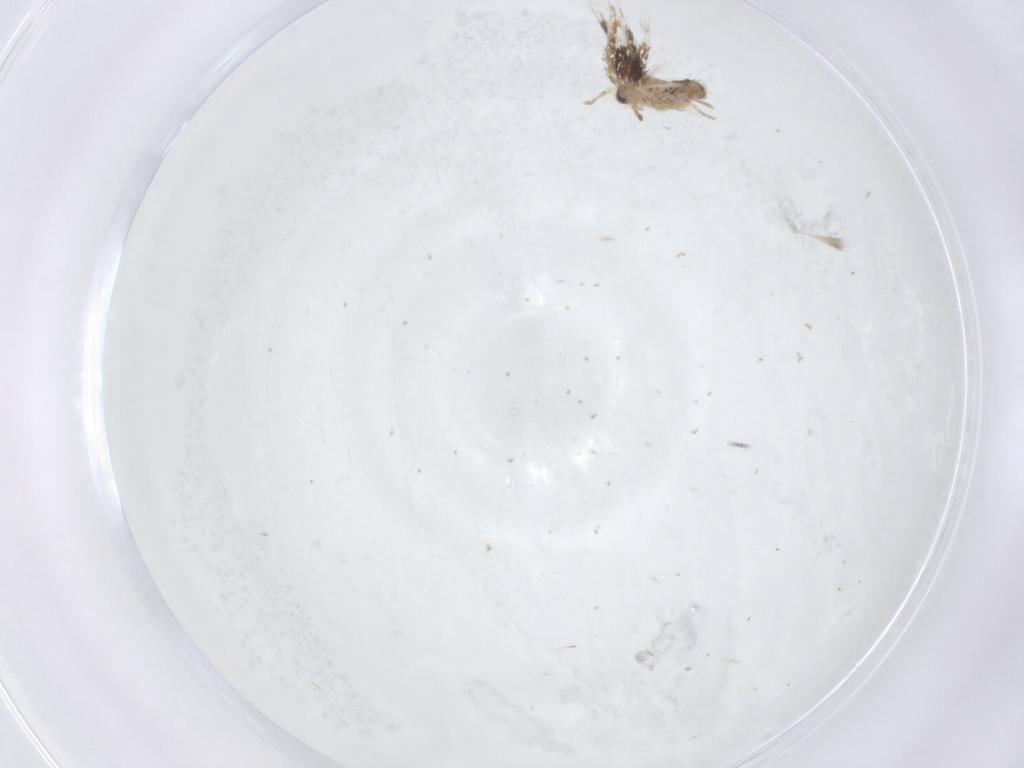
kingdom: Animalia
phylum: Arthropoda
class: Insecta
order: Lepidoptera
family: Nepticulidae
